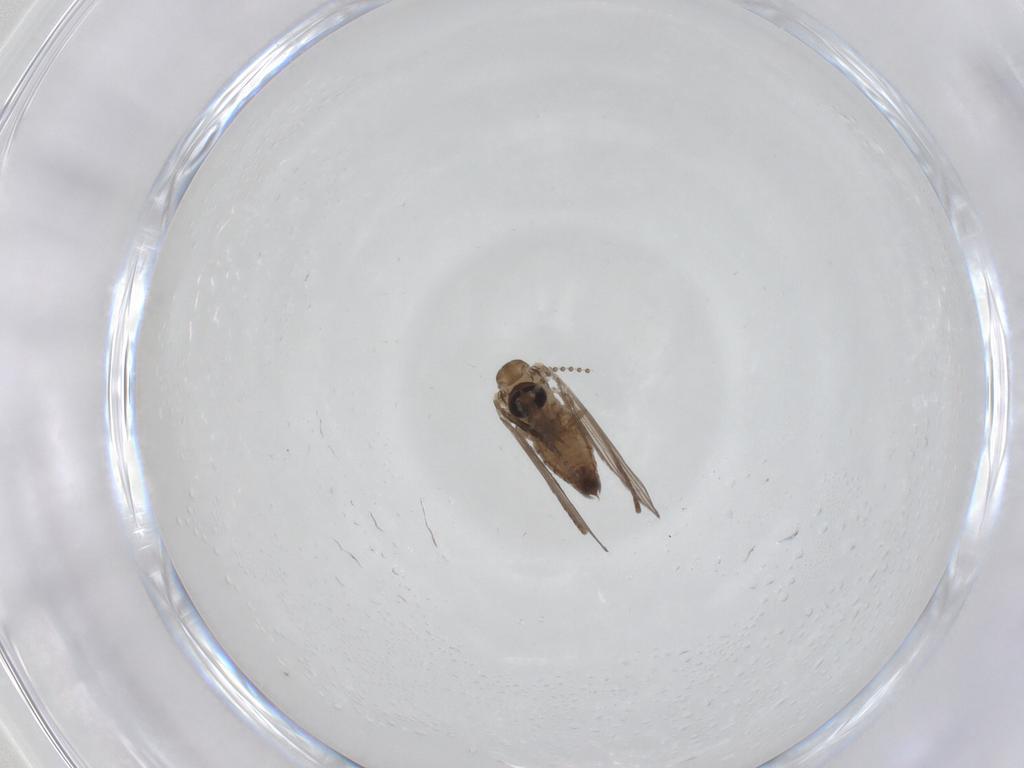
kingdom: Animalia
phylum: Arthropoda
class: Insecta
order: Diptera
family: Psychodidae
